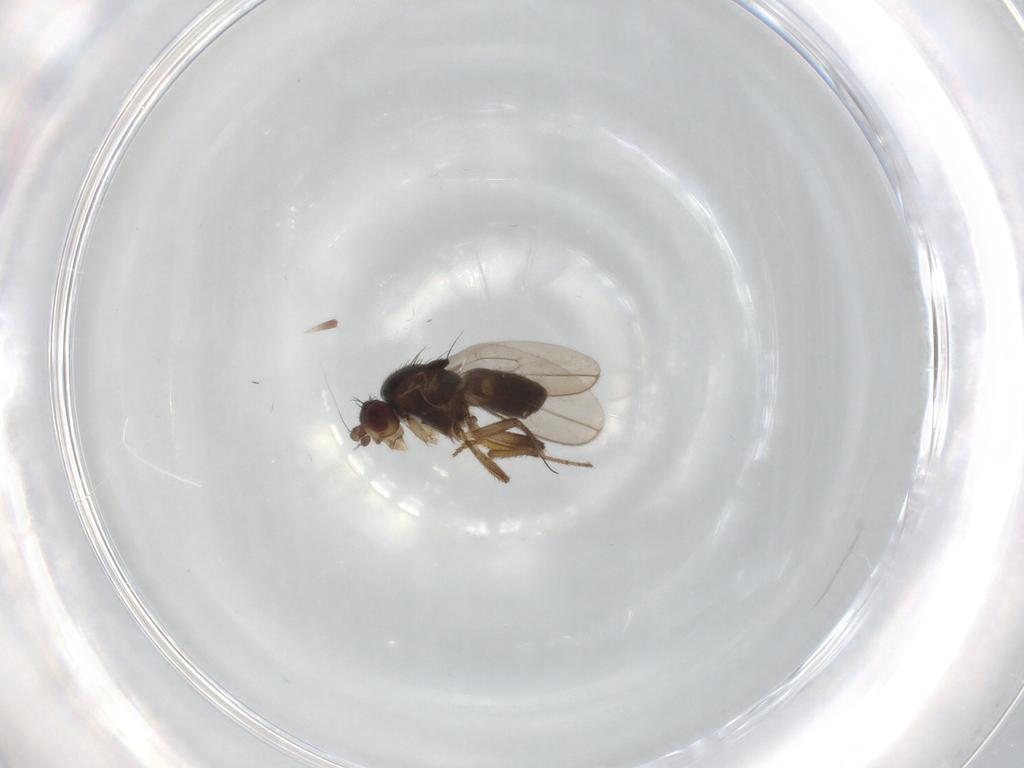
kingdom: Animalia
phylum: Arthropoda
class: Insecta
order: Diptera
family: Sphaeroceridae
